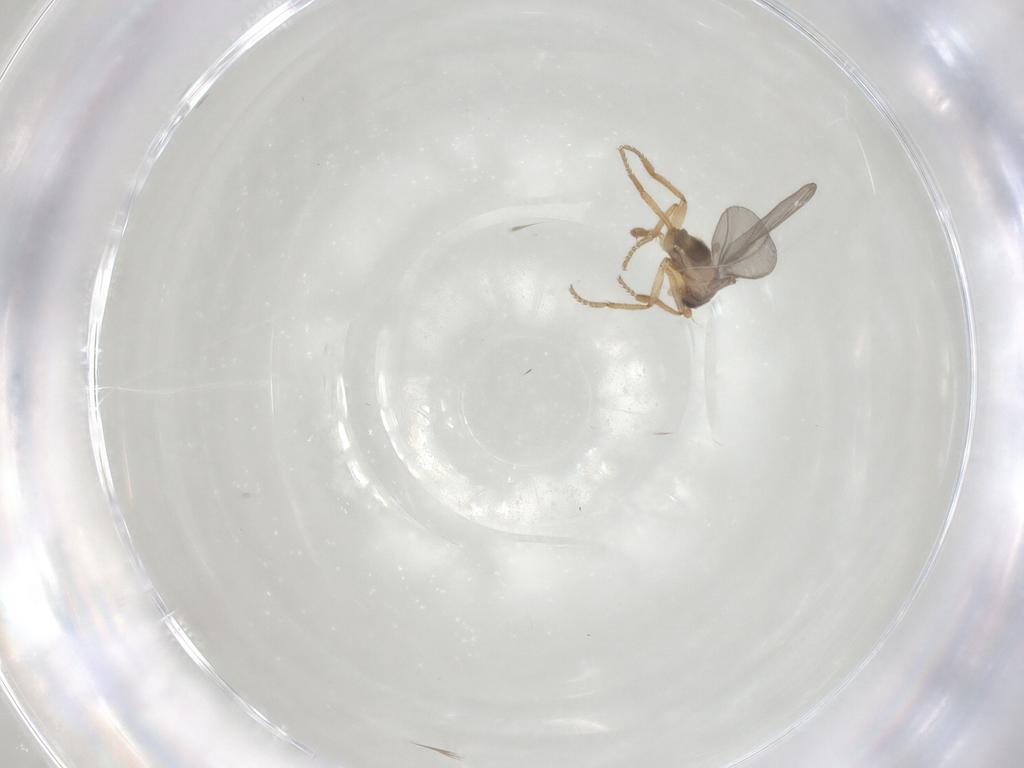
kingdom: Animalia
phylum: Arthropoda
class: Insecta
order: Diptera
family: Phoridae
